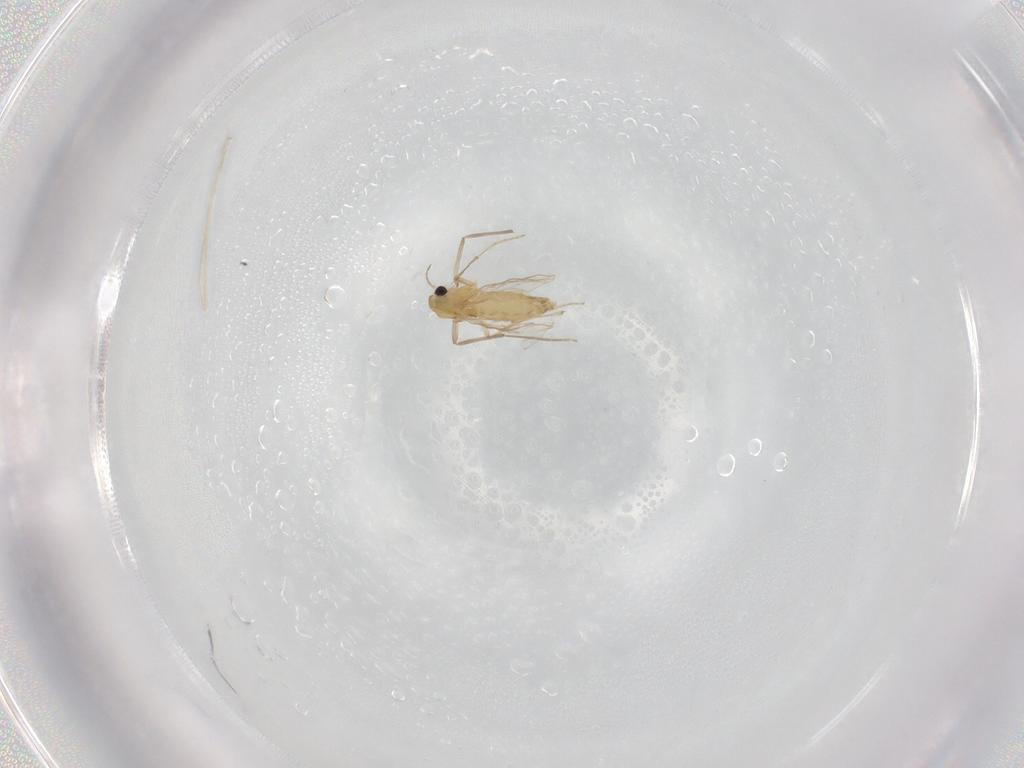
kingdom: Animalia
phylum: Arthropoda
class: Insecta
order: Diptera
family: Chironomidae
